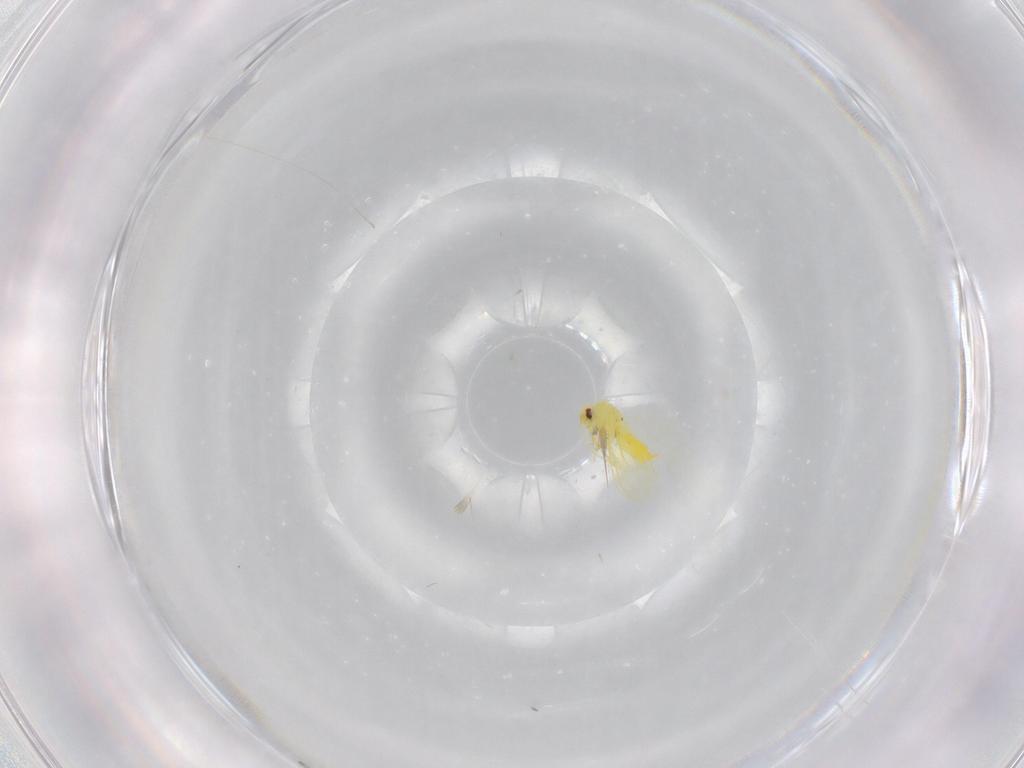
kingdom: Animalia
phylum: Arthropoda
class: Insecta
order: Hemiptera
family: Aleyrodidae
